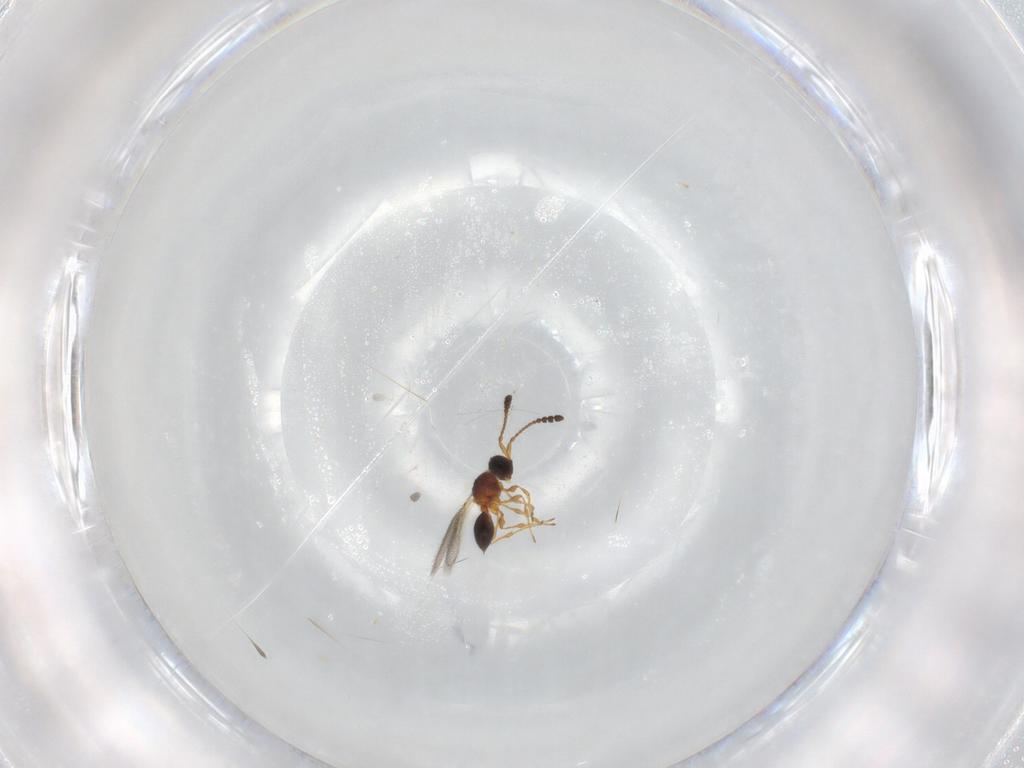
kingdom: Animalia
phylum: Arthropoda
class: Insecta
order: Hymenoptera
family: Diapriidae
